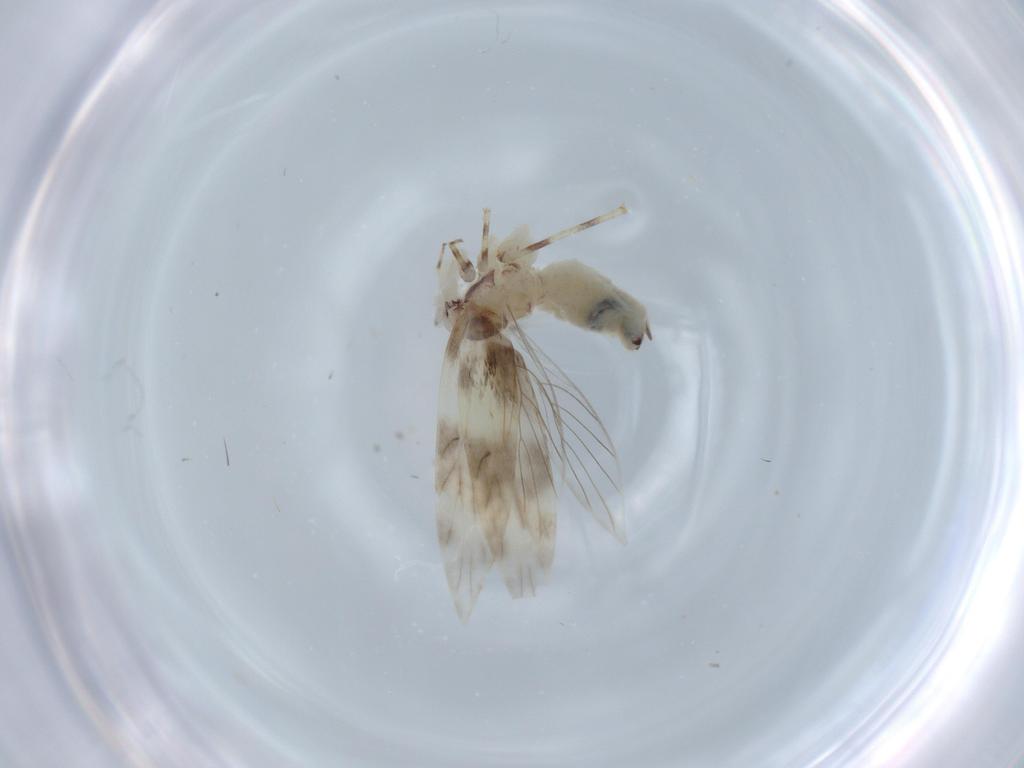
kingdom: Animalia
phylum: Arthropoda
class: Insecta
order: Psocodea
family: Lepidopsocidae
